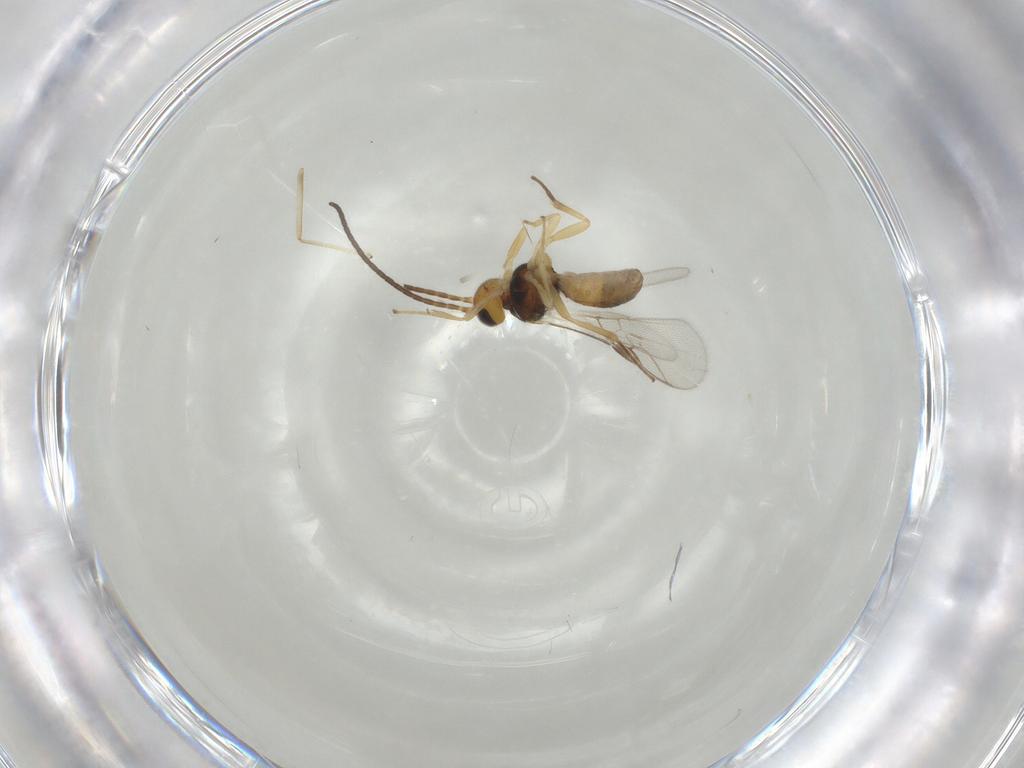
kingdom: Animalia
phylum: Arthropoda
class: Insecta
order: Hymenoptera
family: Braconidae
